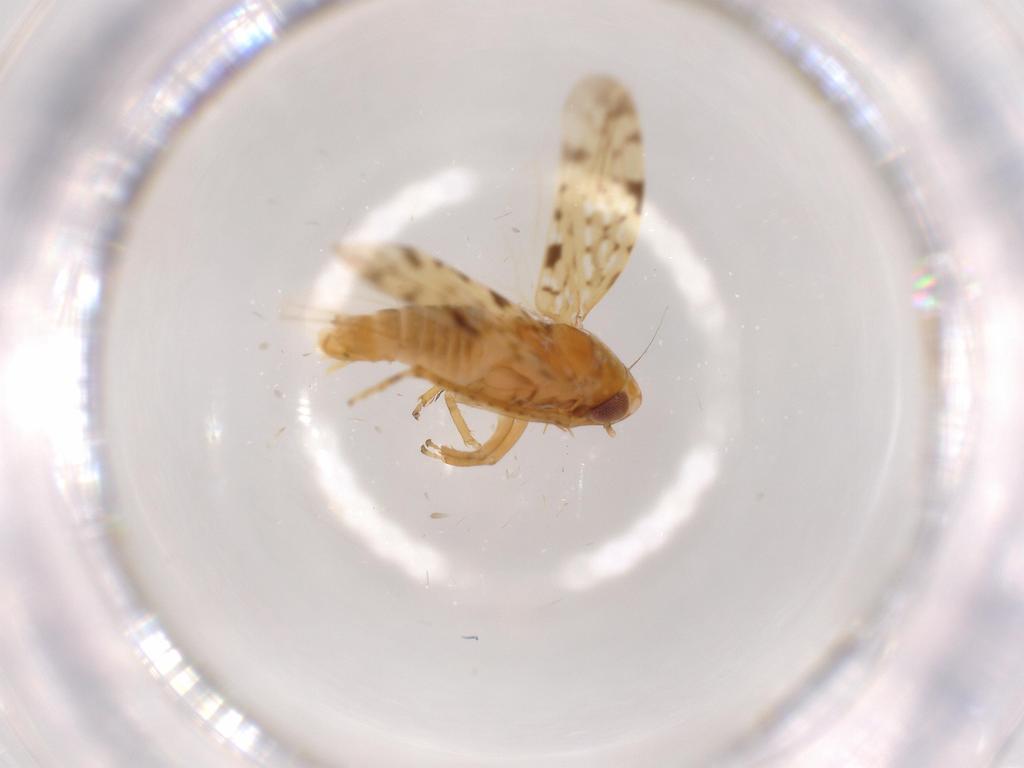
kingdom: Animalia
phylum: Arthropoda
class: Insecta
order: Hemiptera
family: Cicadellidae
